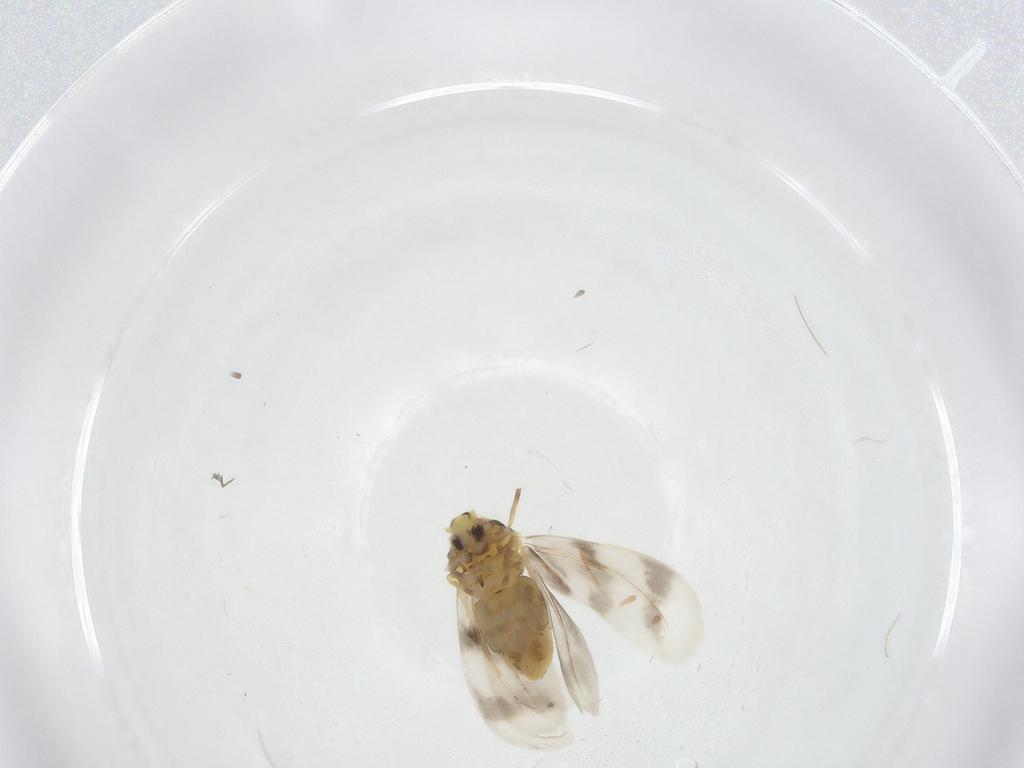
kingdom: Animalia
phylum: Arthropoda
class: Insecta
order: Hemiptera
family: Aleyrodidae
